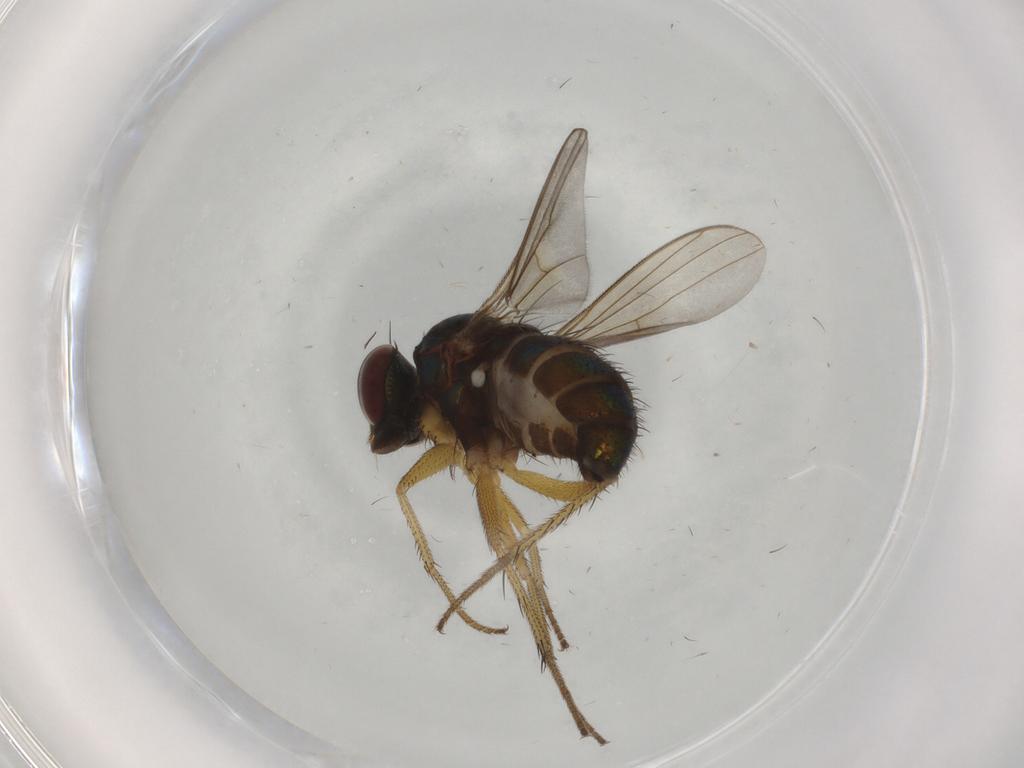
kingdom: Animalia
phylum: Arthropoda
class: Insecta
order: Diptera
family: Dolichopodidae
